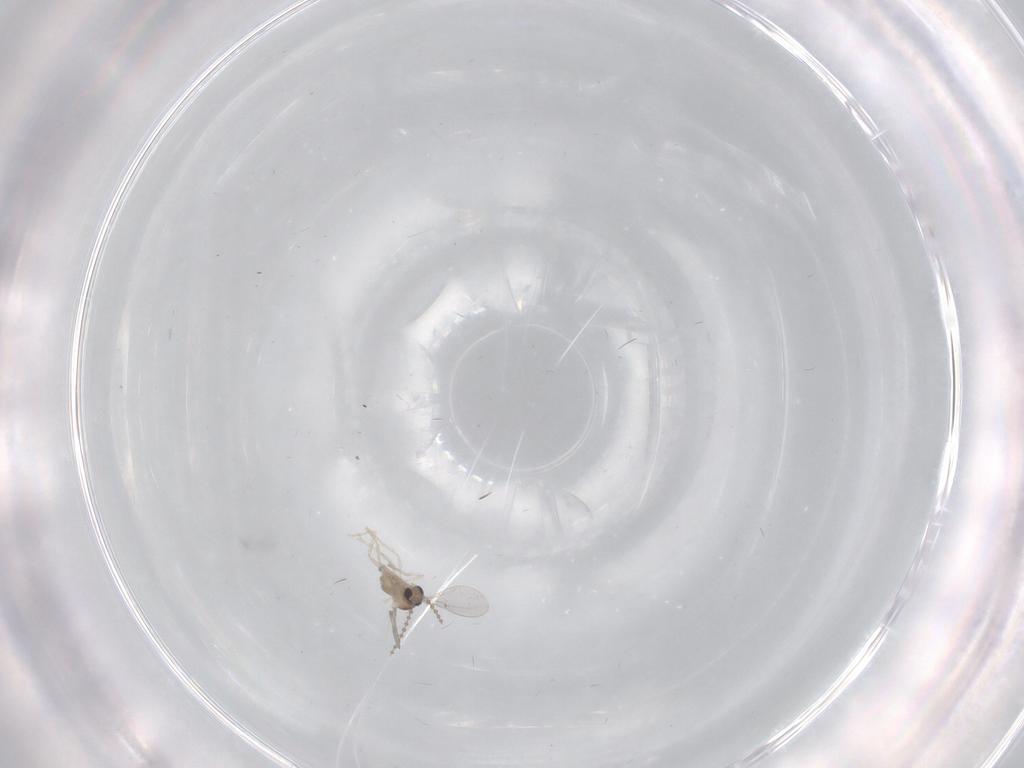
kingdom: Animalia
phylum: Arthropoda
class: Insecta
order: Diptera
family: Cecidomyiidae
